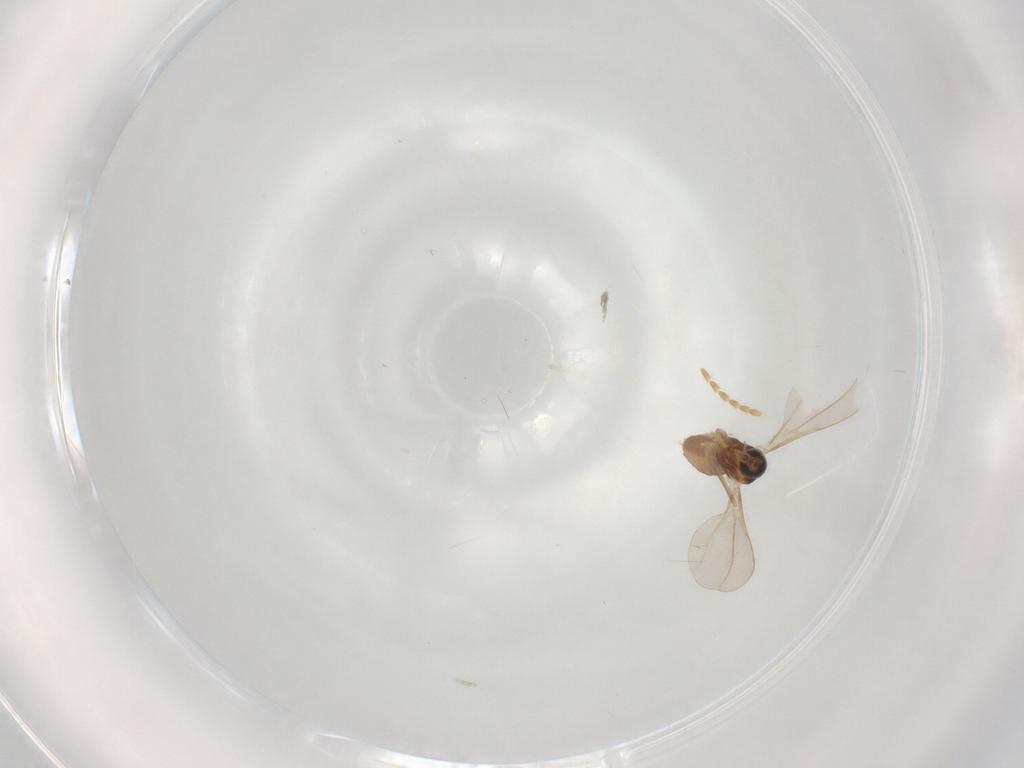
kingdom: Animalia
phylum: Arthropoda
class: Insecta
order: Diptera
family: Cecidomyiidae
